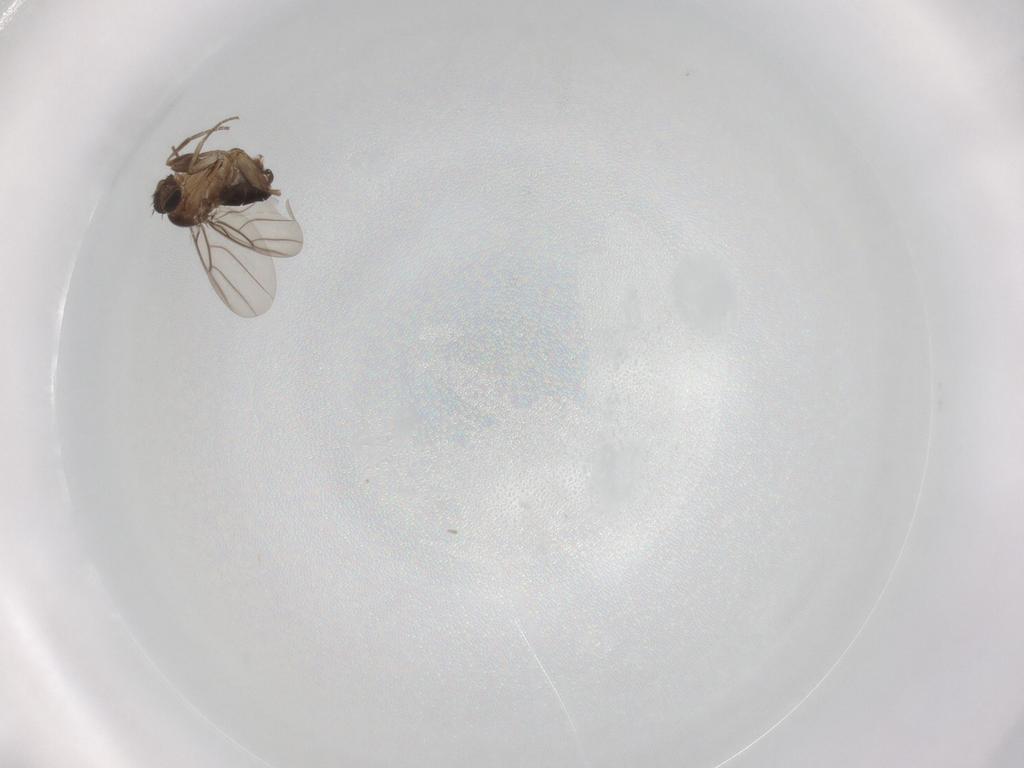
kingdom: Animalia
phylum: Arthropoda
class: Insecta
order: Diptera
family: Phoridae
